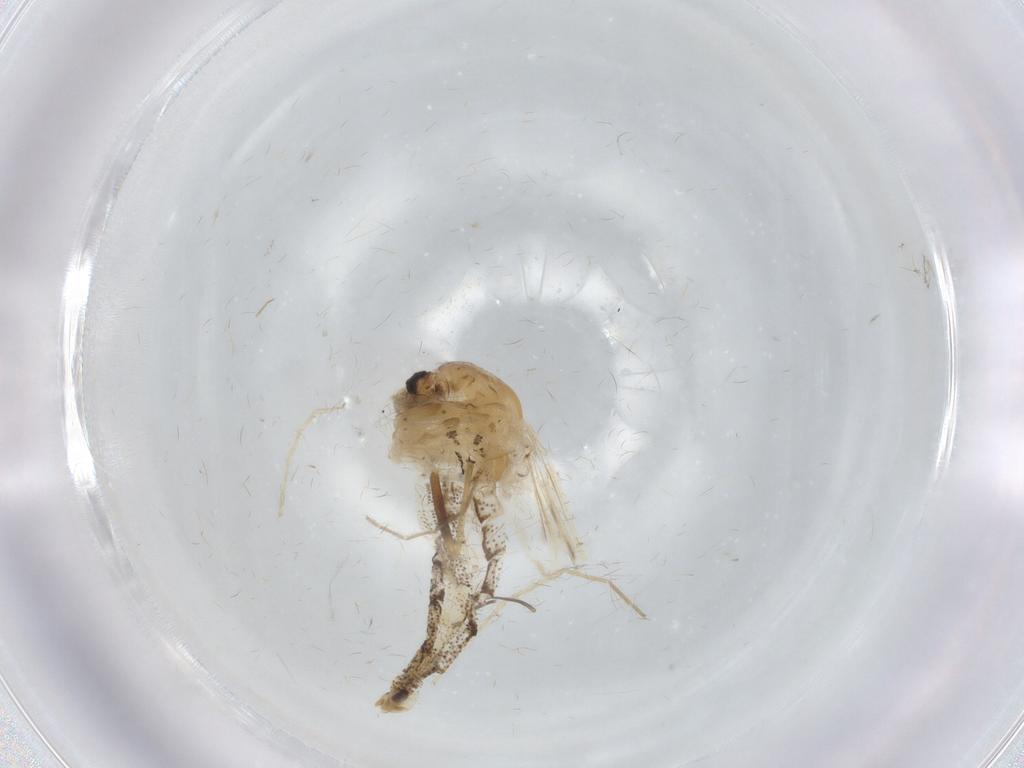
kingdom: Animalia
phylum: Arthropoda
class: Insecta
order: Diptera
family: Chaoboridae
